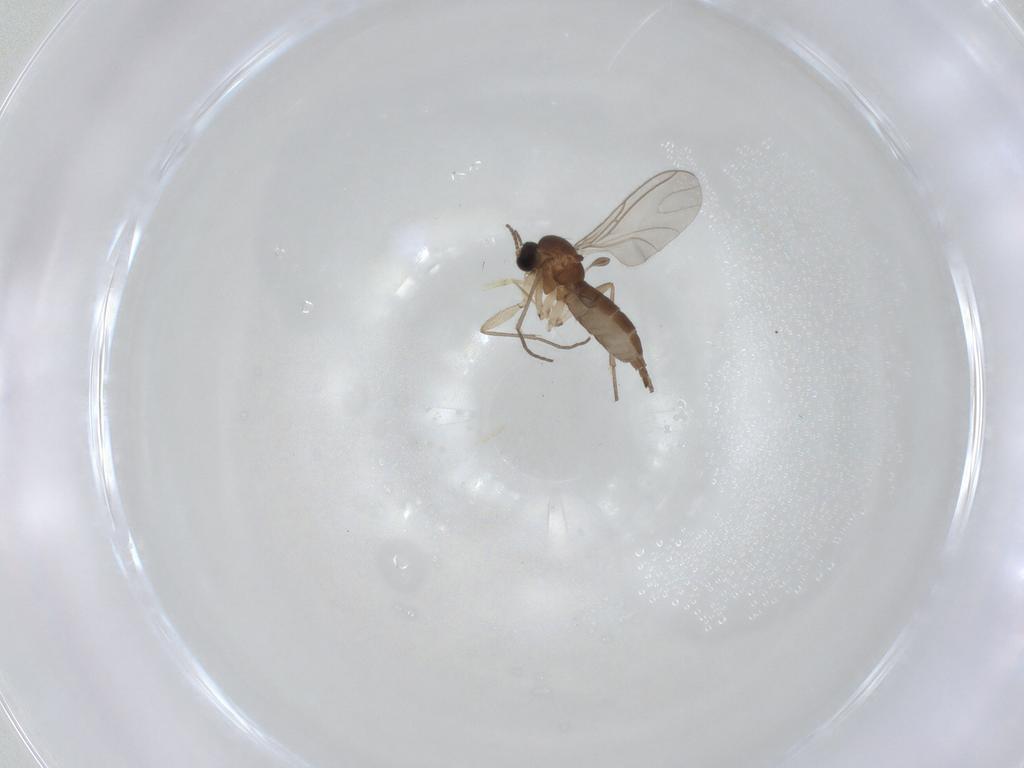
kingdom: Animalia
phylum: Arthropoda
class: Insecta
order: Diptera
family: Sciaridae
